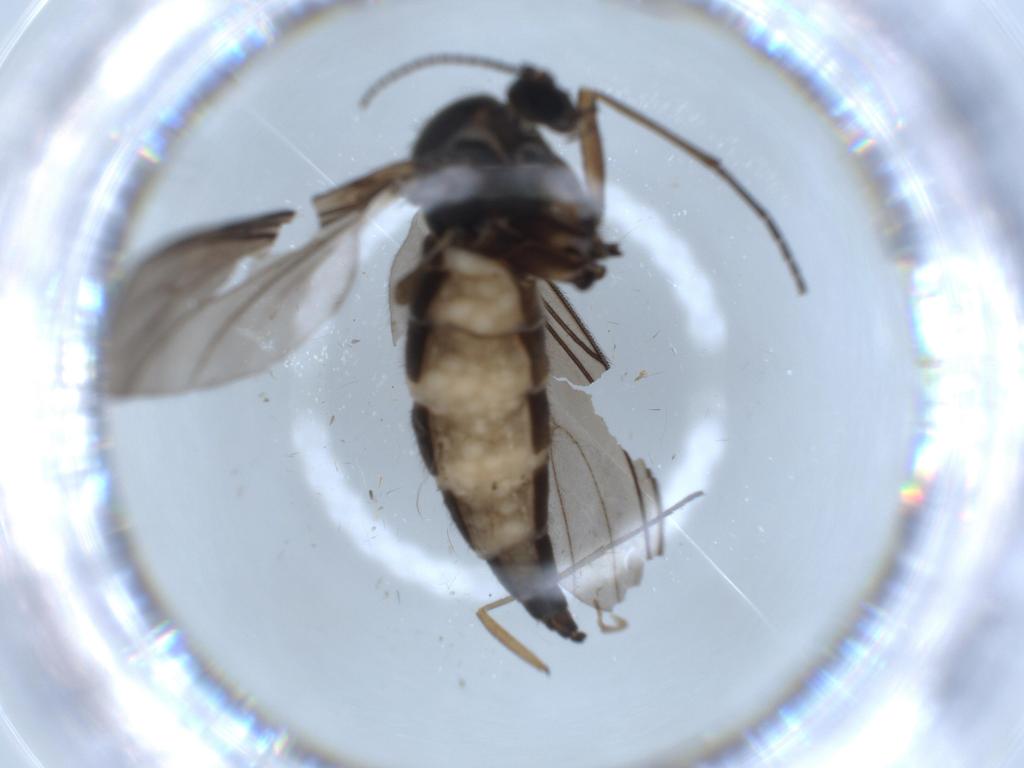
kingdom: Animalia
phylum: Arthropoda
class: Insecta
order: Diptera
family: Sciaridae
